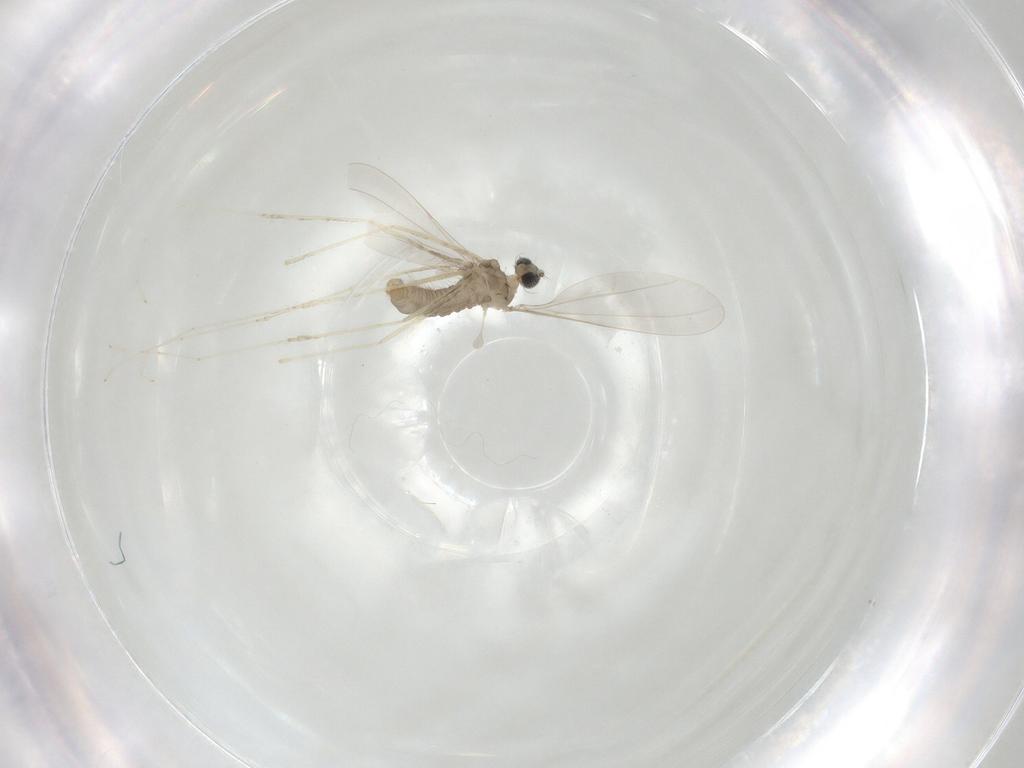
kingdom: Animalia
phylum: Arthropoda
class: Insecta
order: Diptera
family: Cecidomyiidae
